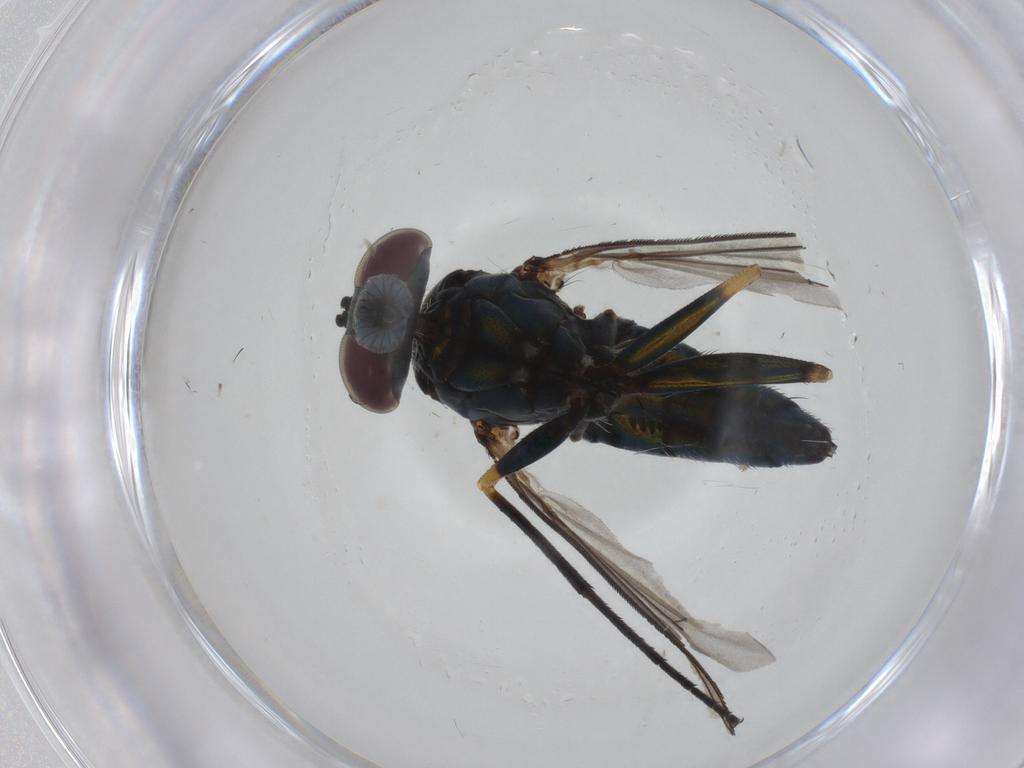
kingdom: Animalia
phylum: Arthropoda
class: Insecta
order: Diptera
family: Dolichopodidae
